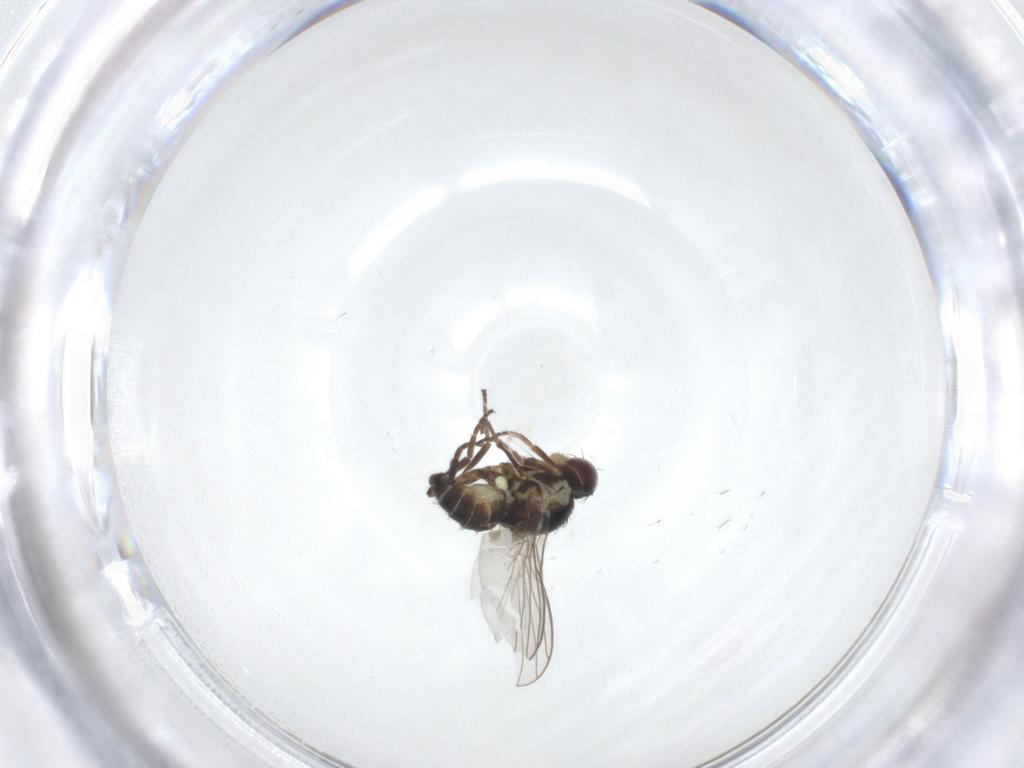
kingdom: Animalia
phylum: Arthropoda
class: Insecta
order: Diptera
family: Agromyzidae
